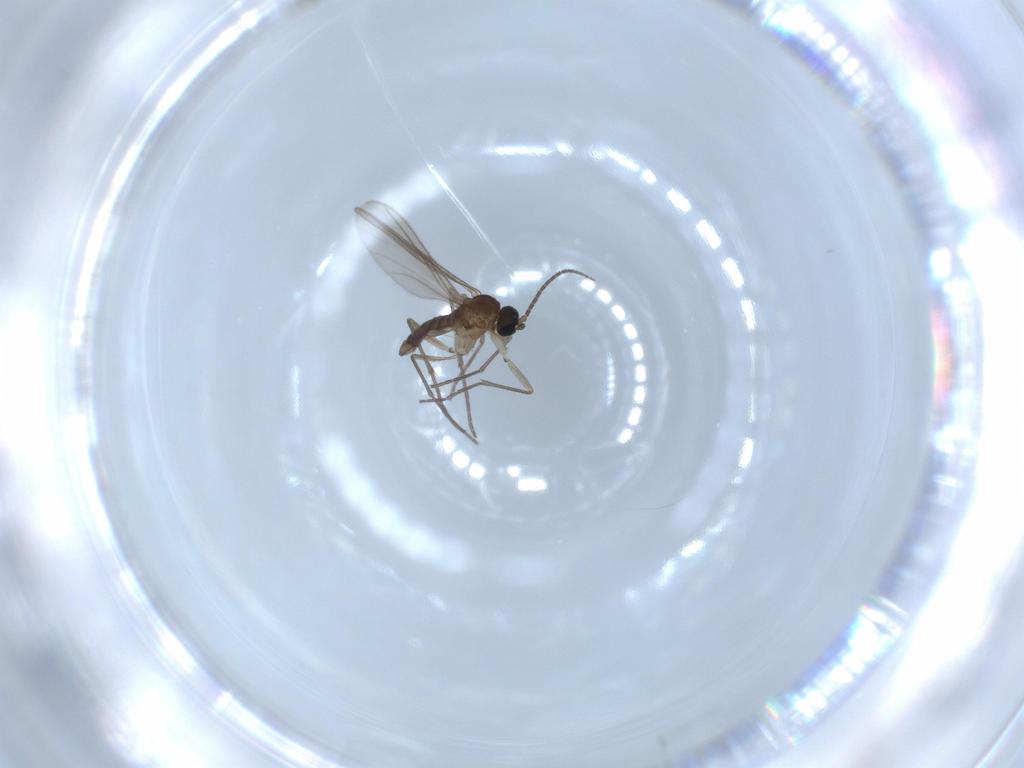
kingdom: Animalia
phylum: Arthropoda
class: Insecta
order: Diptera
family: Sciaridae
